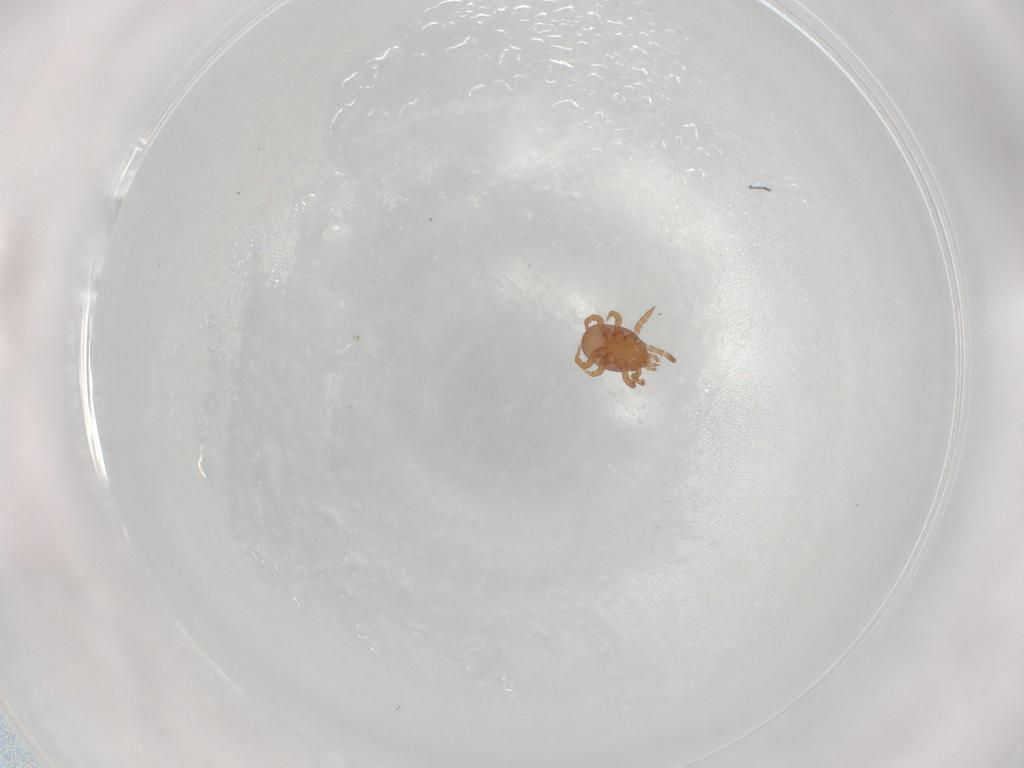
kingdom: Animalia
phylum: Arthropoda
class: Arachnida
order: Mesostigmata
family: Eviphididae
